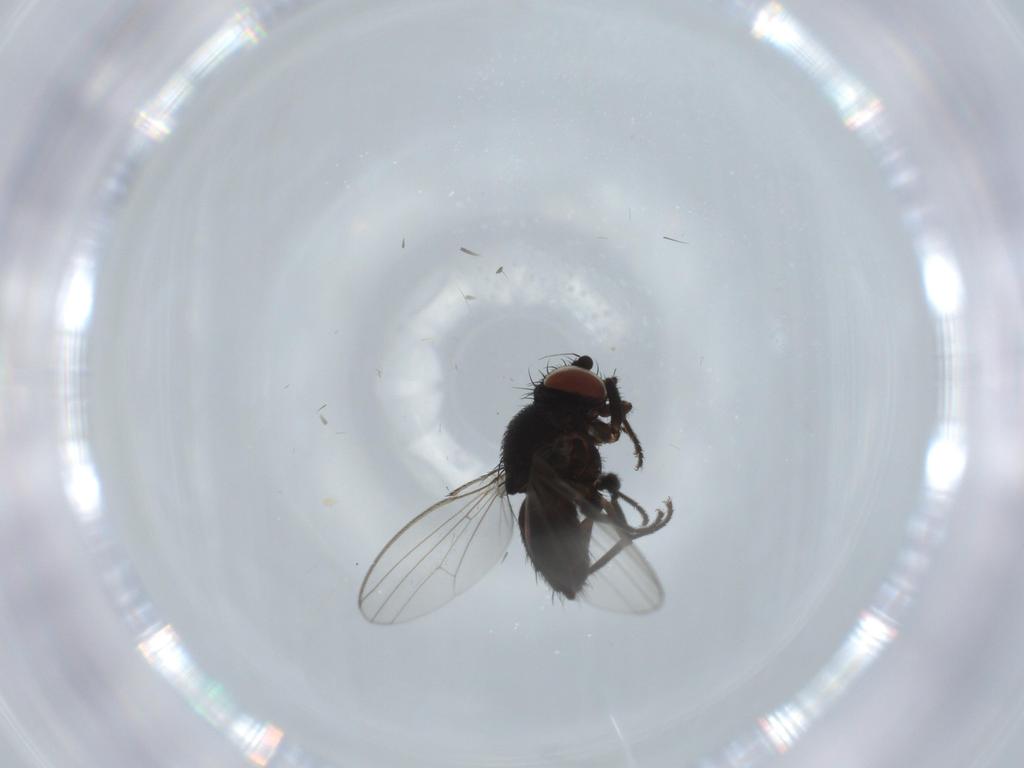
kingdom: Animalia
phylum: Arthropoda
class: Insecta
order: Diptera
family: Milichiidae
